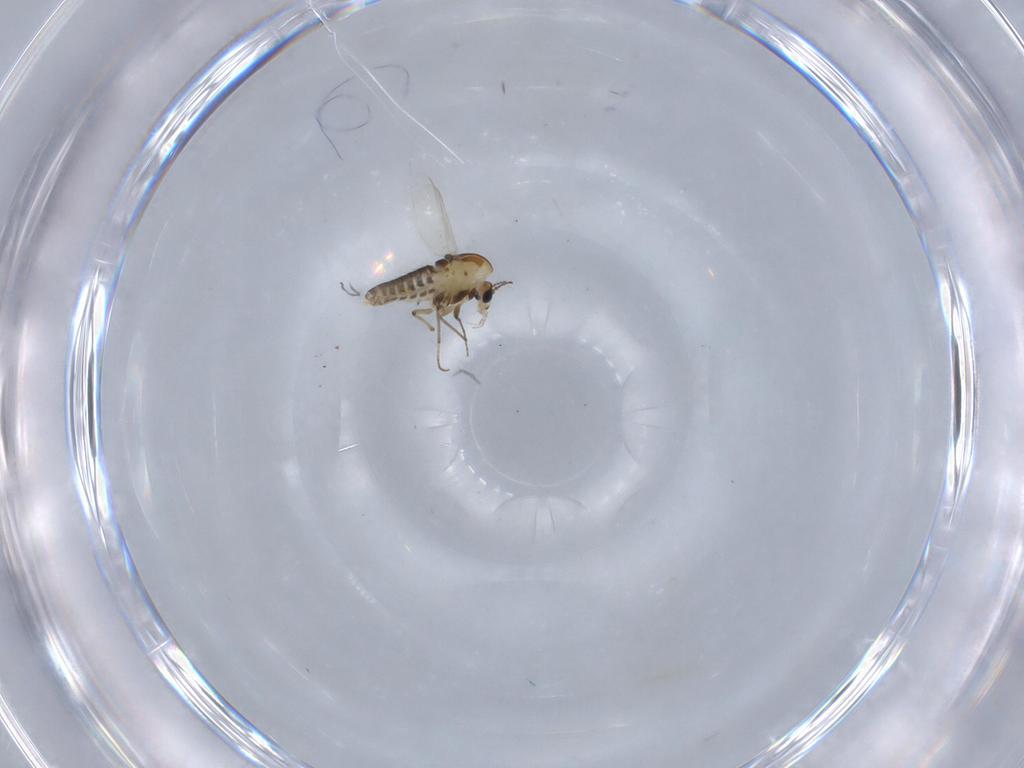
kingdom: Animalia
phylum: Arthropoda
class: Insecta
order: Diptera
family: Chironomidae
